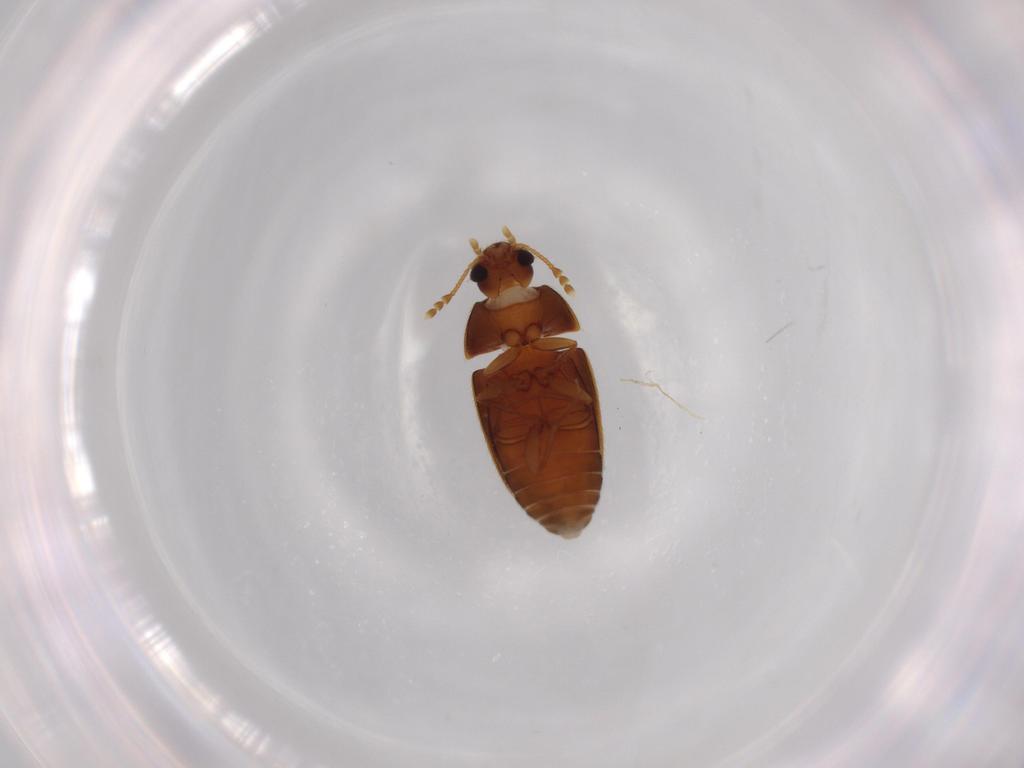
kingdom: Animalia
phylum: Arthropoda
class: Insecta
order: Coleoptera
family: Mycetophagidae
